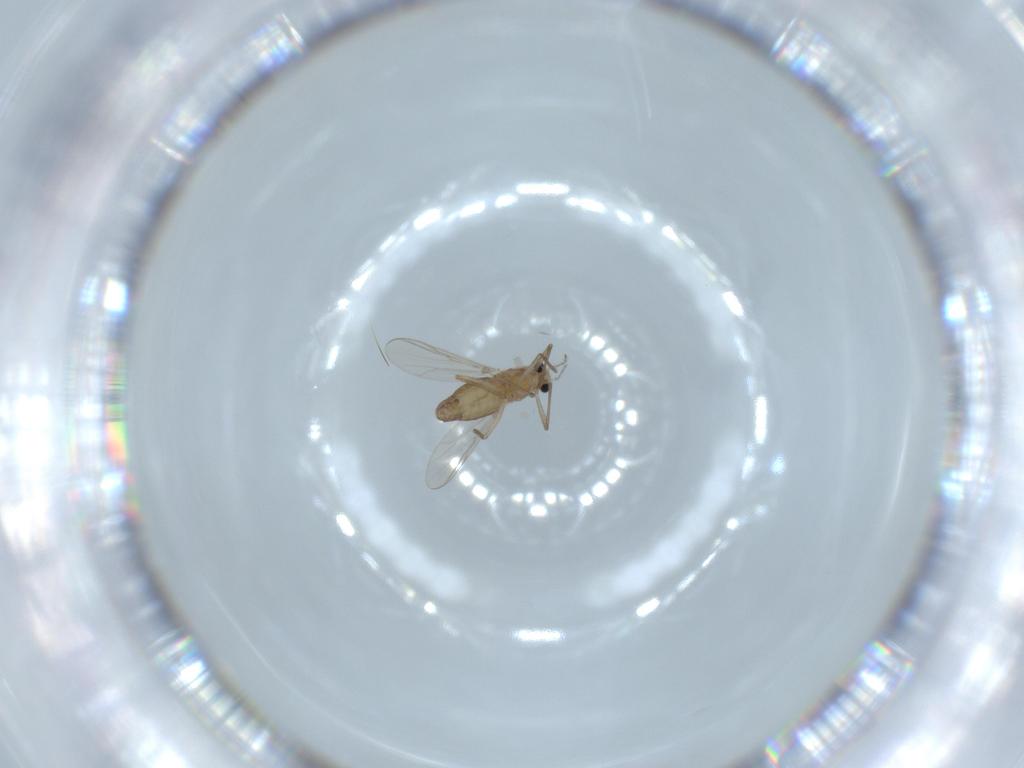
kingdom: Animalia
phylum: Arthropoda
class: Insecta
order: Diptera
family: Chironomidae
